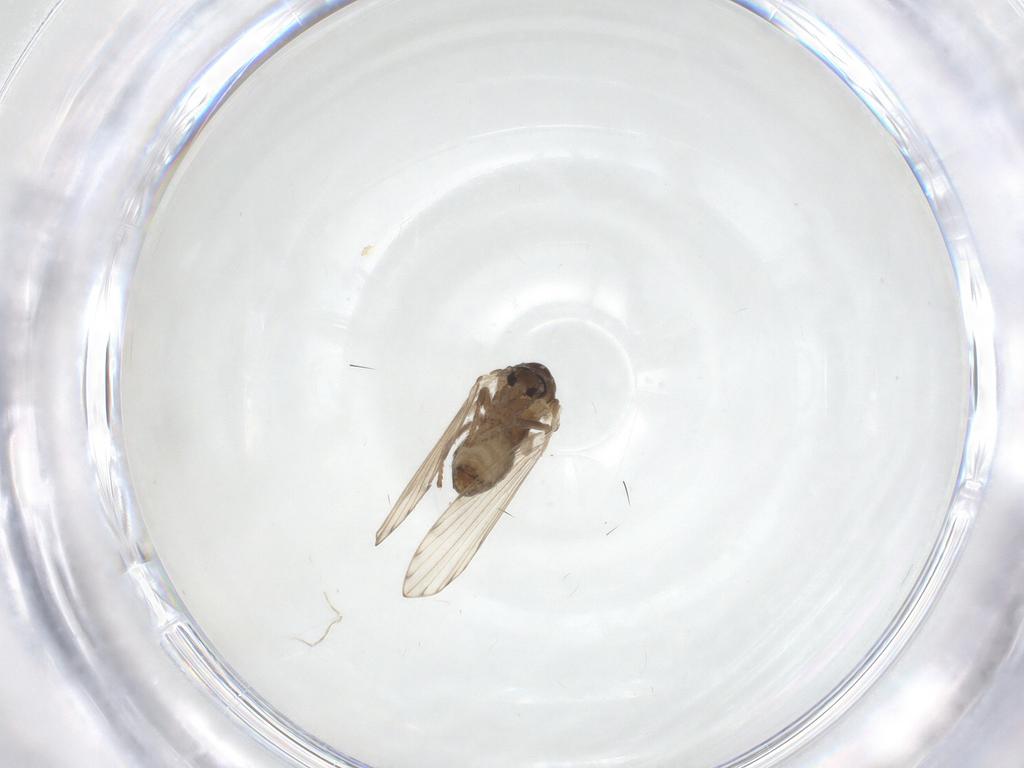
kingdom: Animalia
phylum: Arthropoda
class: Insecta
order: Diptera
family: Psychodidae
